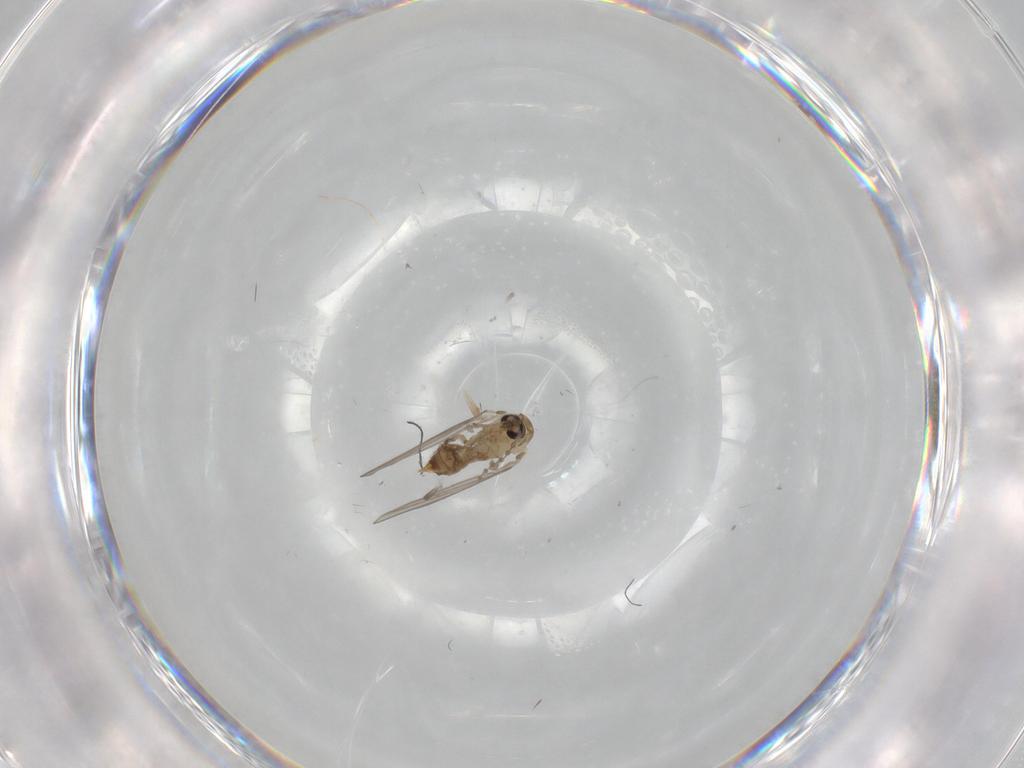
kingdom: Animalia
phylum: Arthropoda
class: Insecta
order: Diptera
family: Psychodidae
